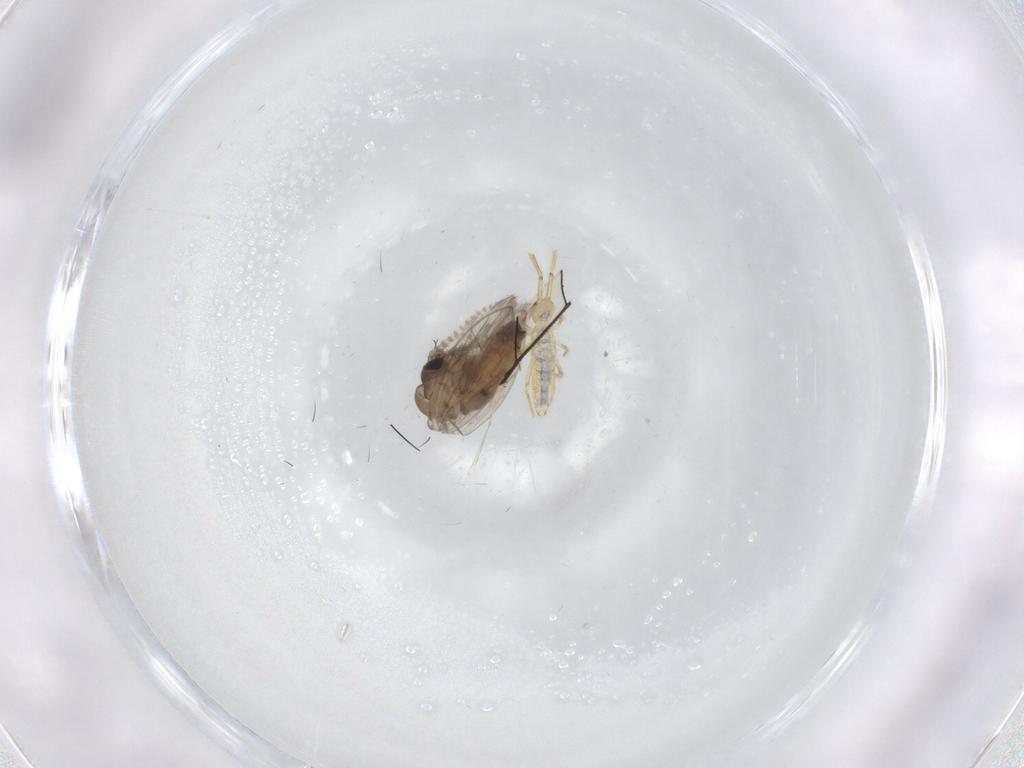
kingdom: Animalia
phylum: Arthropoda
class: Insecta
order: Diptera
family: Psychodidae
